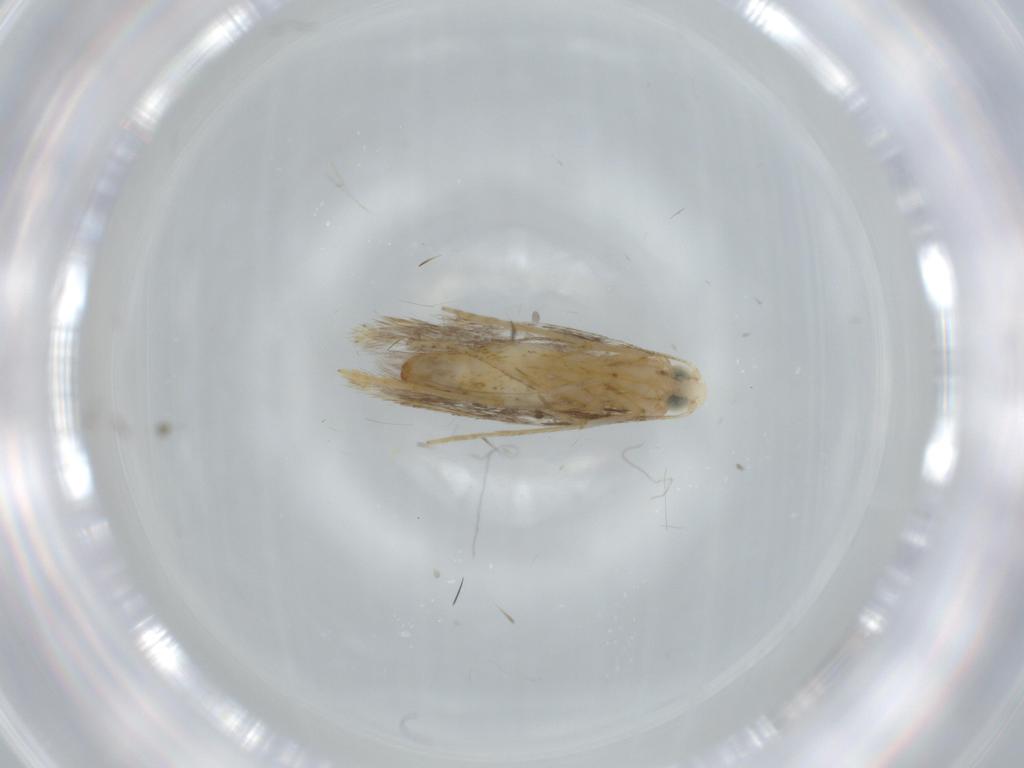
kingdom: Animalia
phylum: Arthropoda
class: Insecta
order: Lepidoptera
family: Tischeriidae
